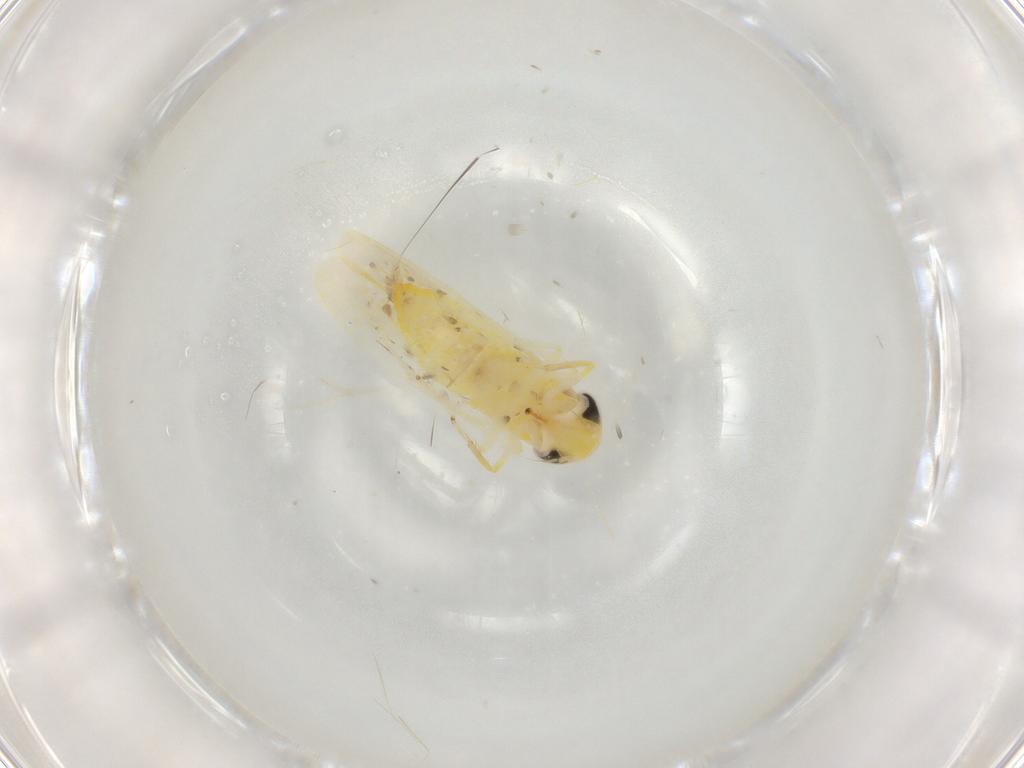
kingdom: Animalia
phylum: Arthropoda
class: Insecta
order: Hemiptera
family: Cicadellidae
